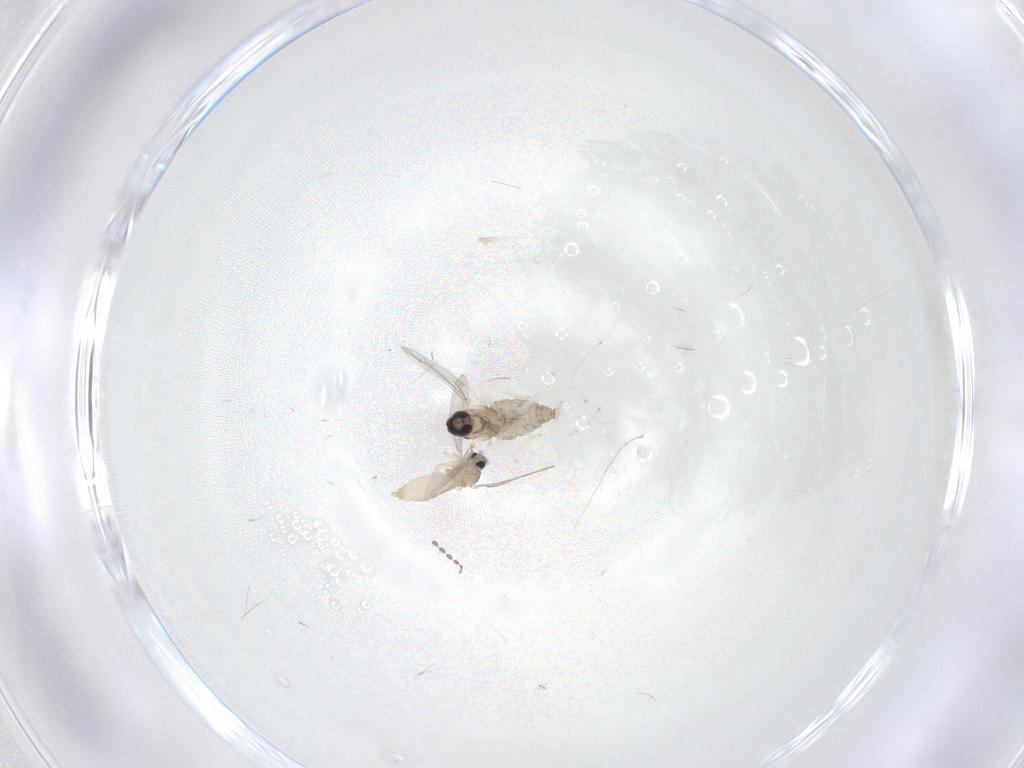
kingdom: Animalia
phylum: Arthropoda
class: Insecta
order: Diptera
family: Cecidomyiidae
